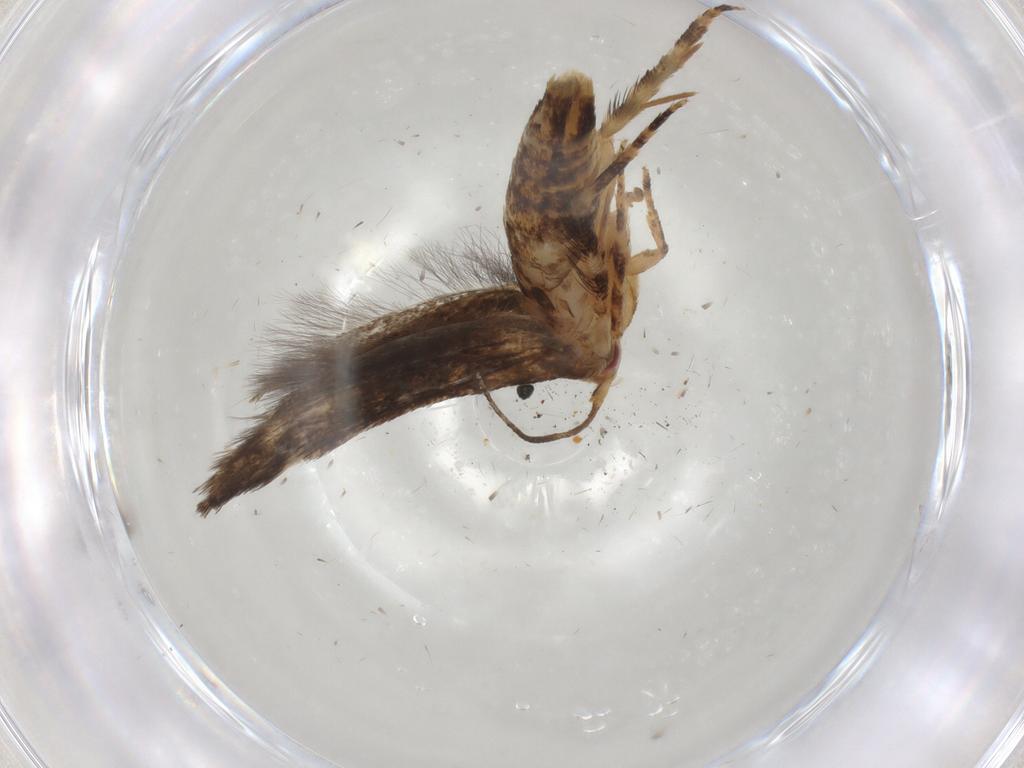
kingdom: Animalia
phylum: Arthropoda
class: Insecta
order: Lepidoptera
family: Momphidae
